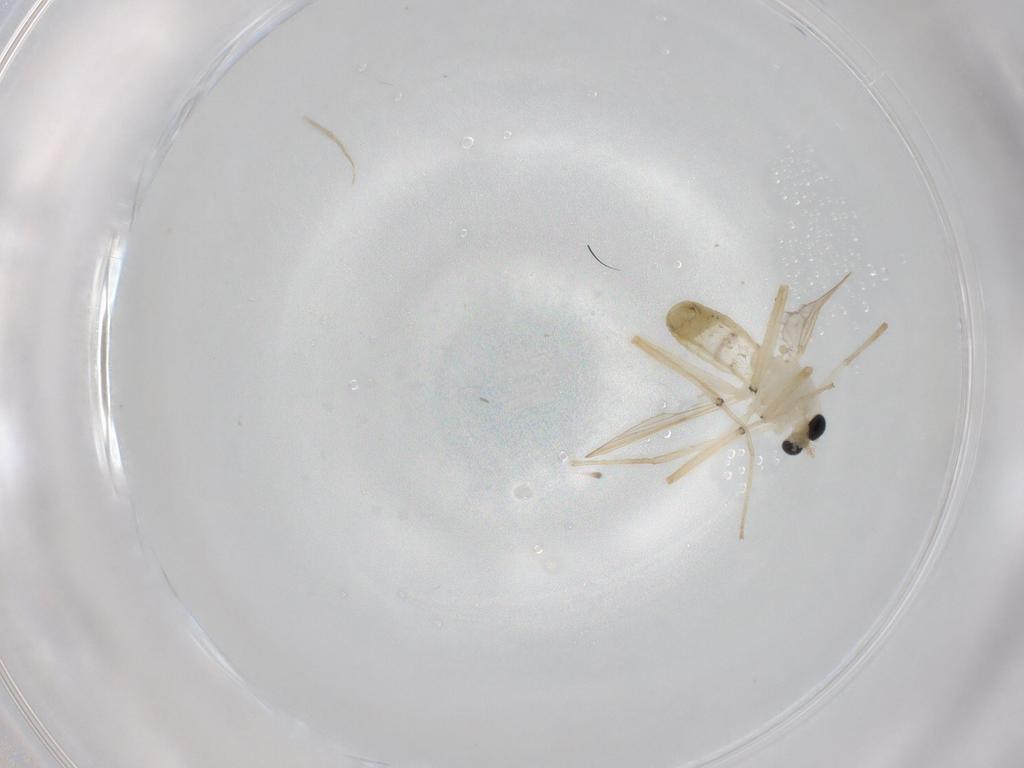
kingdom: Animalia
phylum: Arthropoda
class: Insecta
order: Diptera
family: Chironomidae
